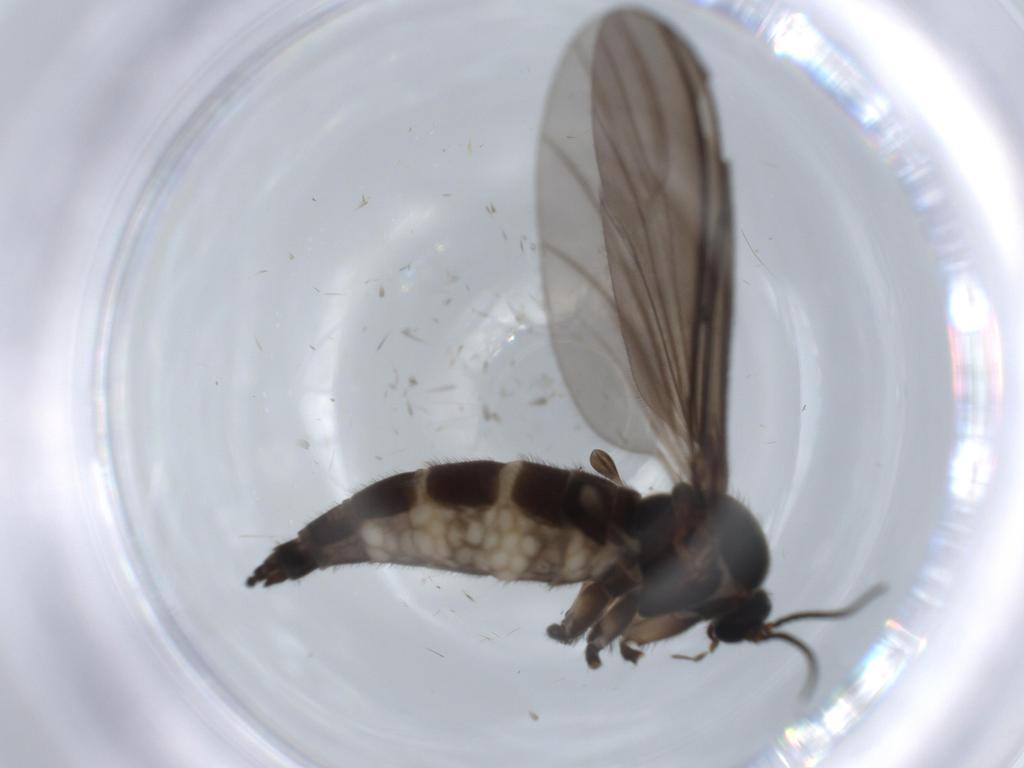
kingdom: Animalia
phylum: Arthropoda
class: Insecta
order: Diptera
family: Sciaridae
